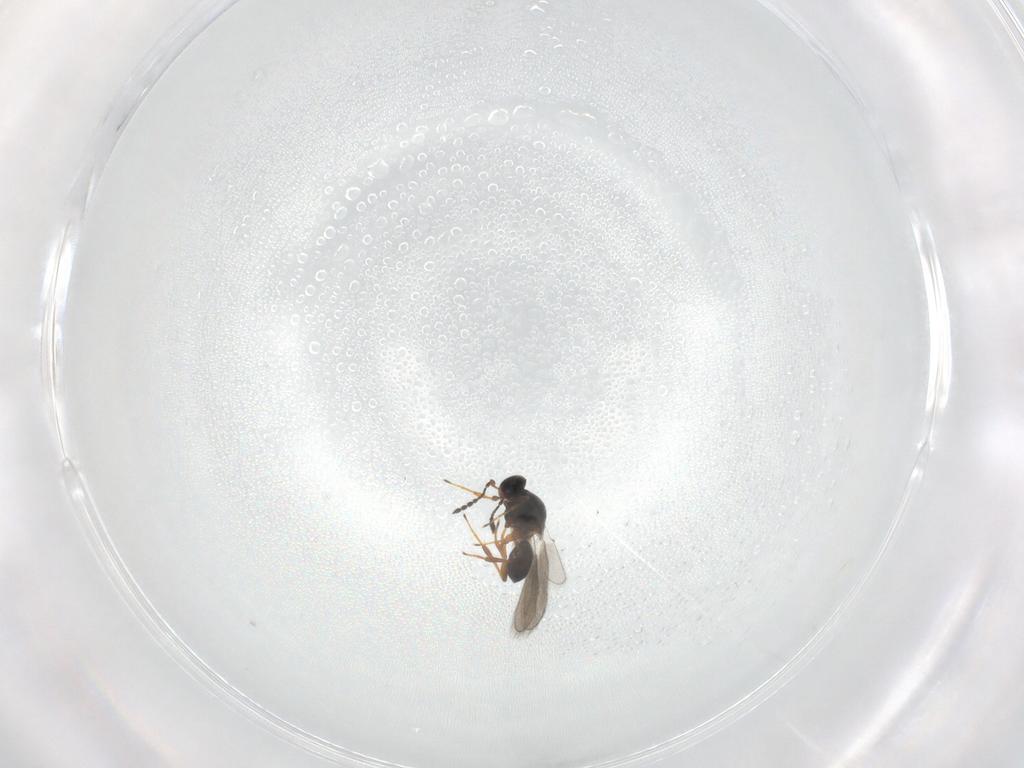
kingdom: Animalia
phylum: Arthropoda
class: Insecta
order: Hymenoptera
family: Platygastridae
